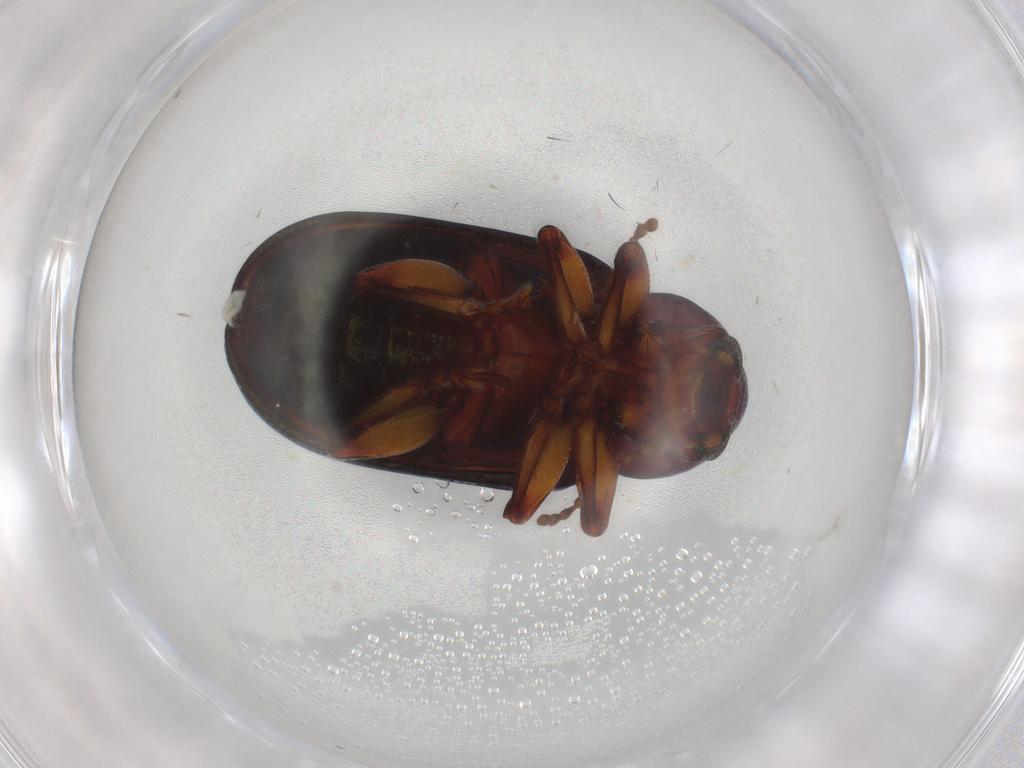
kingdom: Animalia
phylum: Arthropoda
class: Insecta
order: Coleoptera
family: Chrysomelidae
